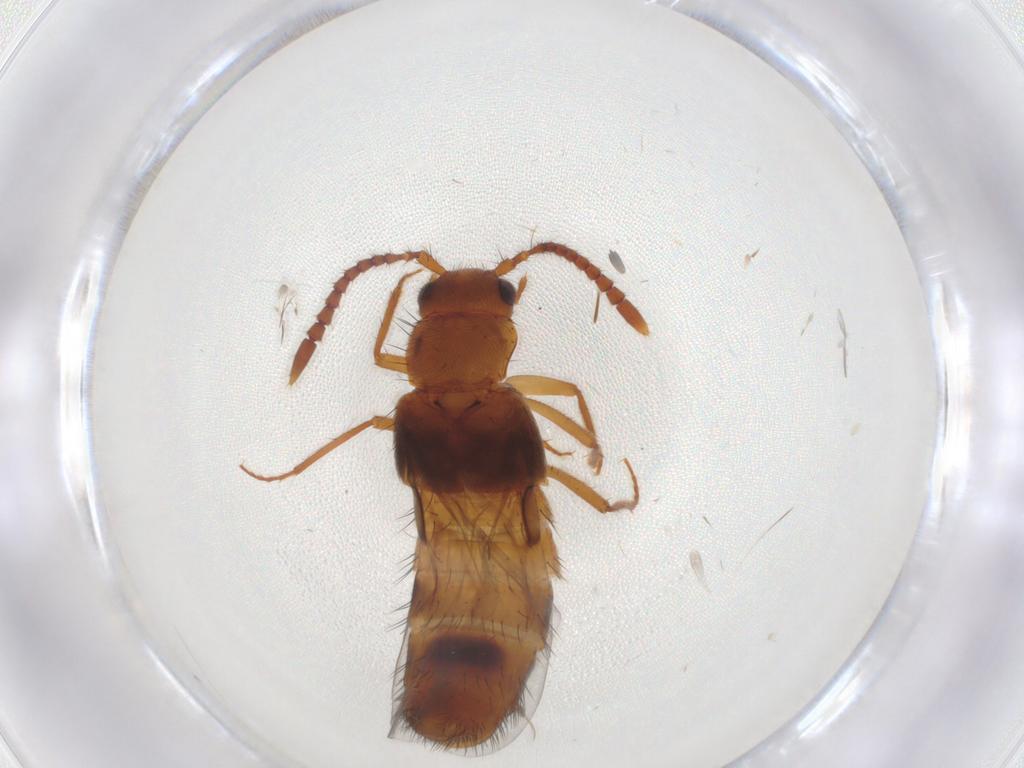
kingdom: Animalia
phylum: Arthropoda
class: Insecta
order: Coleoptera
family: Staphylinidae
